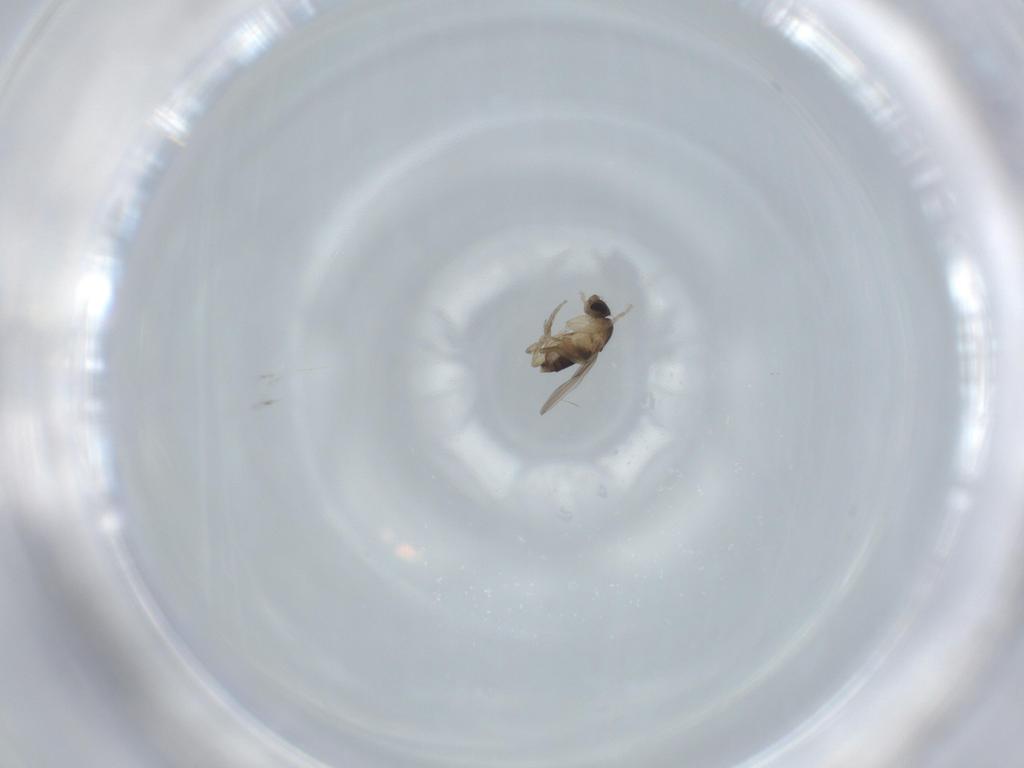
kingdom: Animalia
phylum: Arthropoda
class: Insecta
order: Diptera
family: Phoridae
